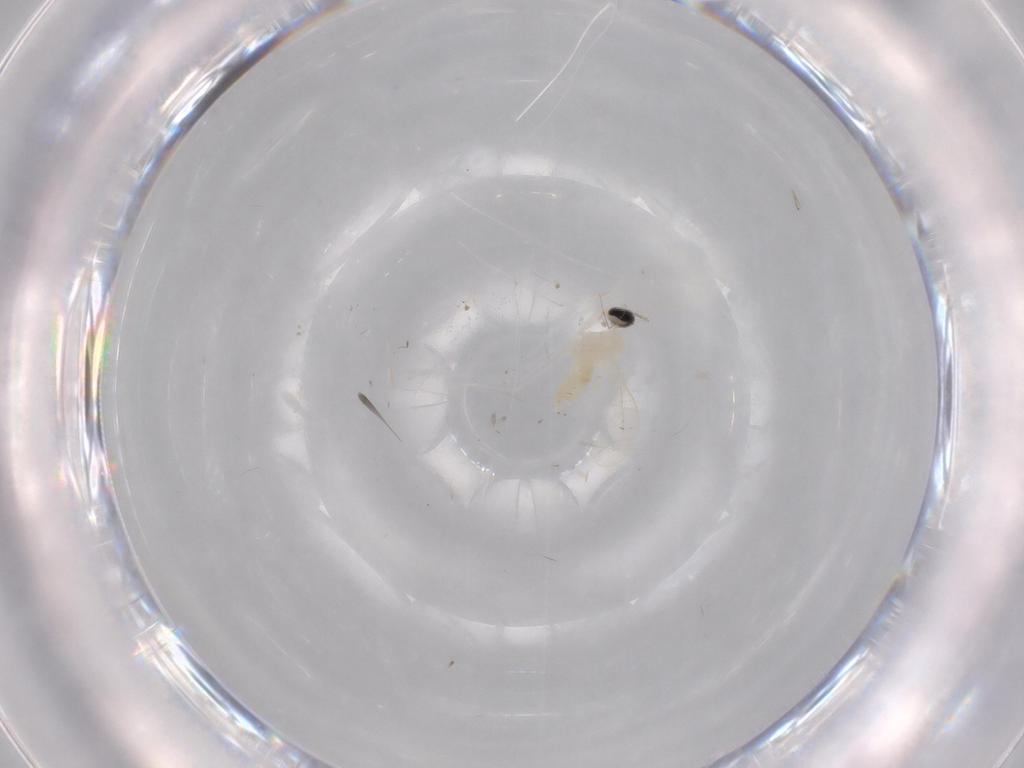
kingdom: Animalia
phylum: Arthropoda
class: Insecta
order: Diptera
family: Cecidomyiidae
